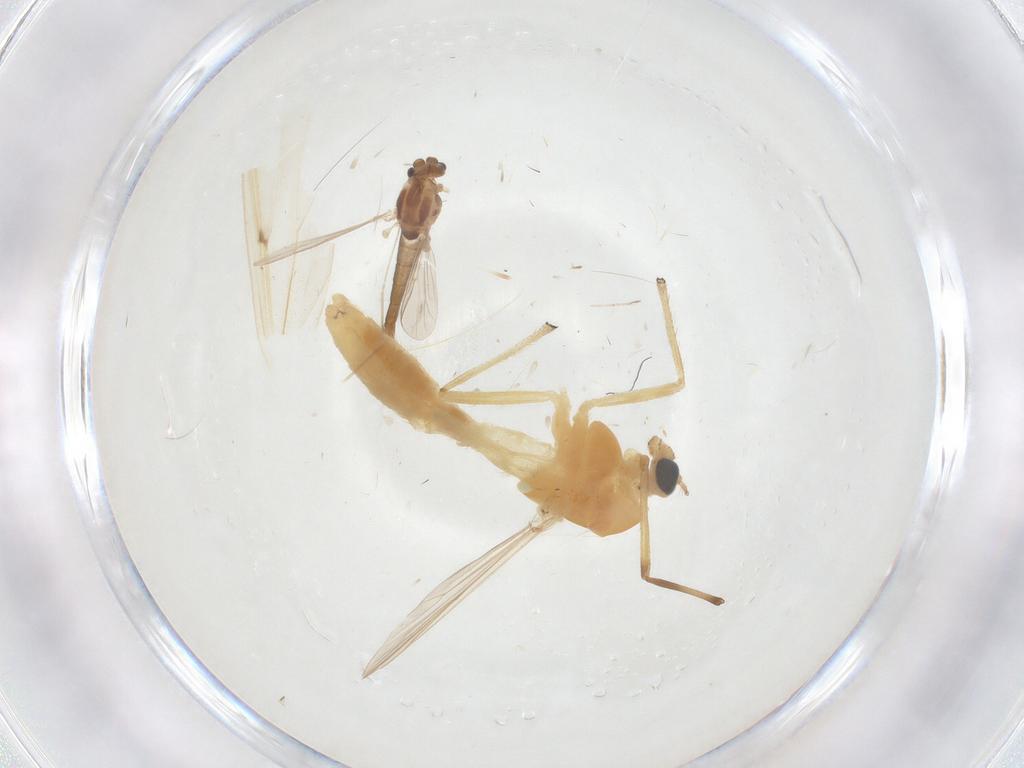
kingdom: Animalia
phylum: Arthropoda
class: Insecta
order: Diptera
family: Chironomidae
